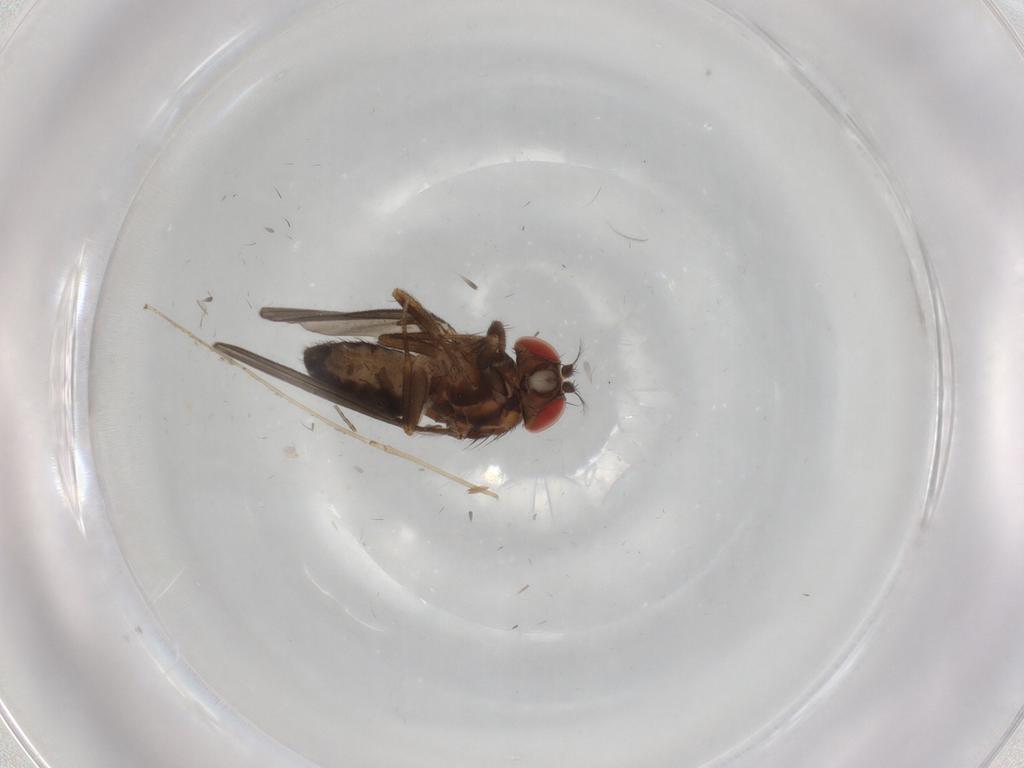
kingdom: Animalia
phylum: Arthropoda
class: Insecta
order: Diptera
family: Drosophilidae
